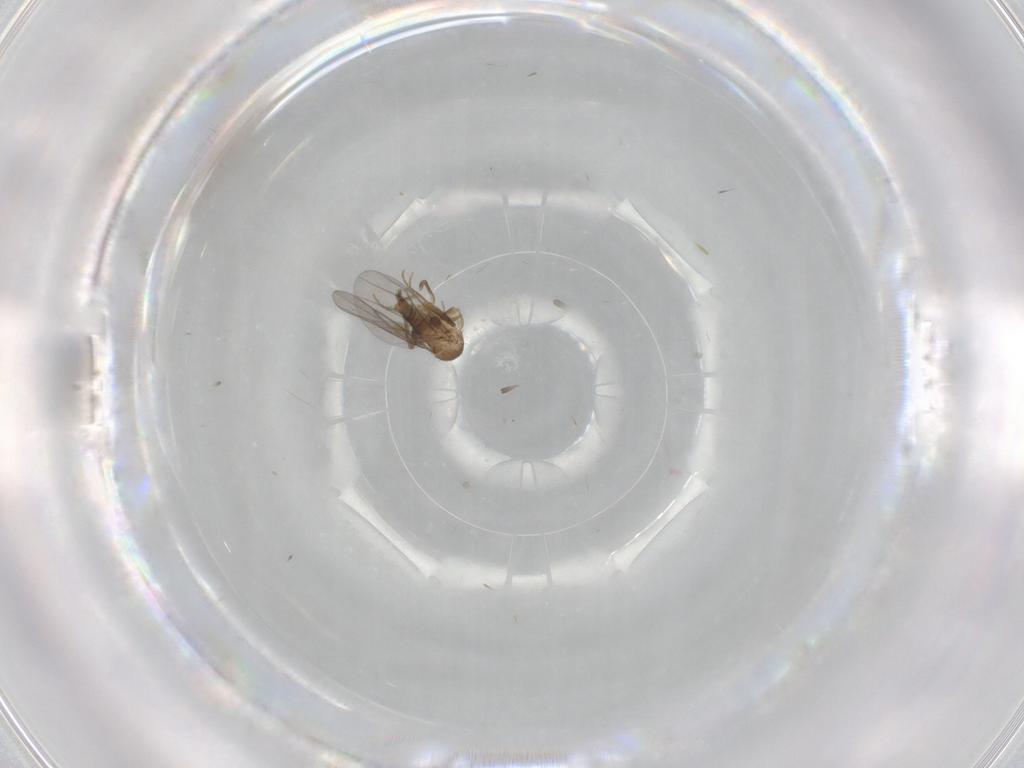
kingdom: Animalia
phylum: Arthropoda
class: Insecta
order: Diptera
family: Psychodidae
